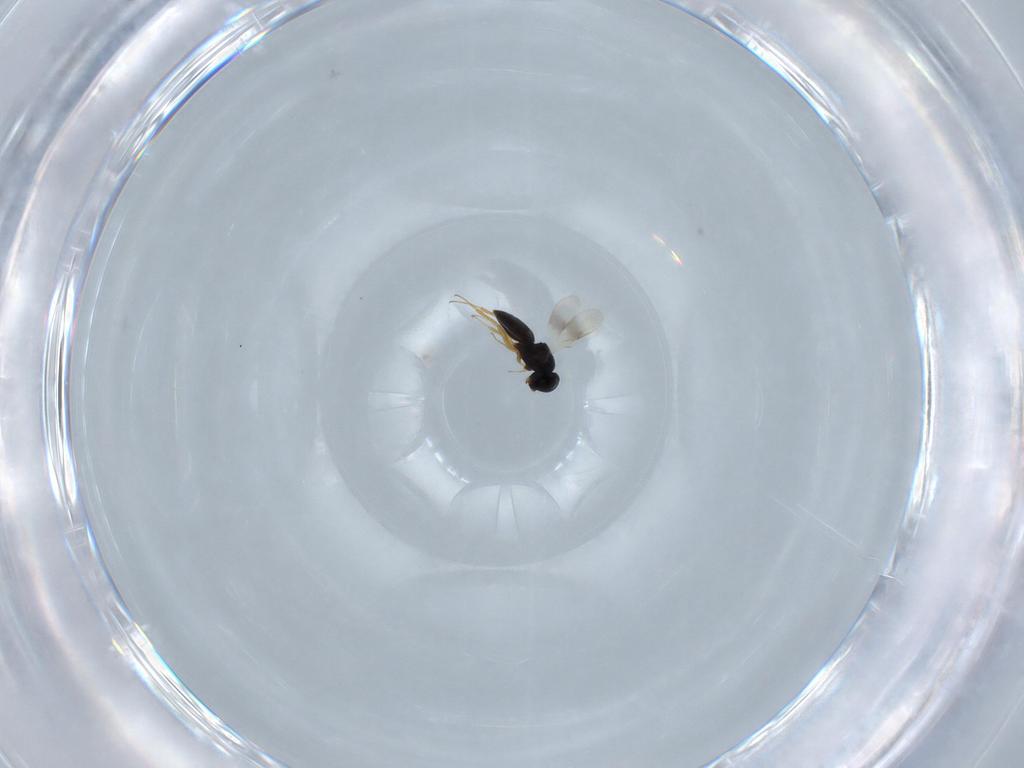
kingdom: Animalia
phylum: Arthropoda
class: Insecta
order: Hymenoptera
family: Scelionidae
